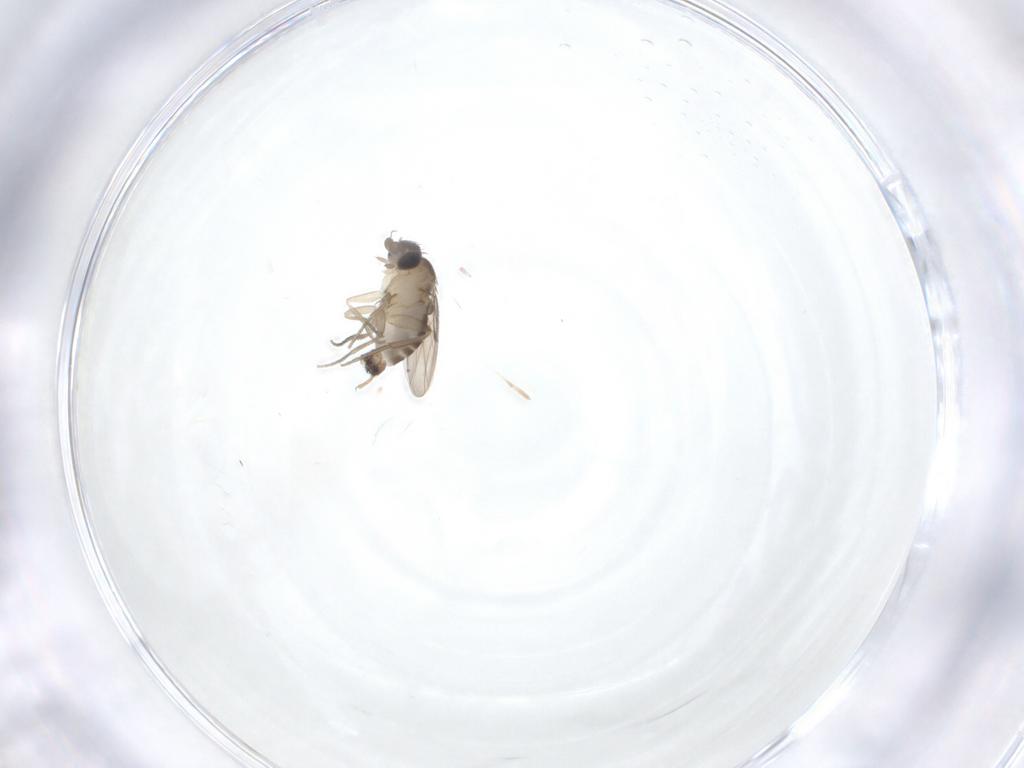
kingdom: Animalia
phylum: Arthropoda
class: Insecta
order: Diptera
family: Phoridae
